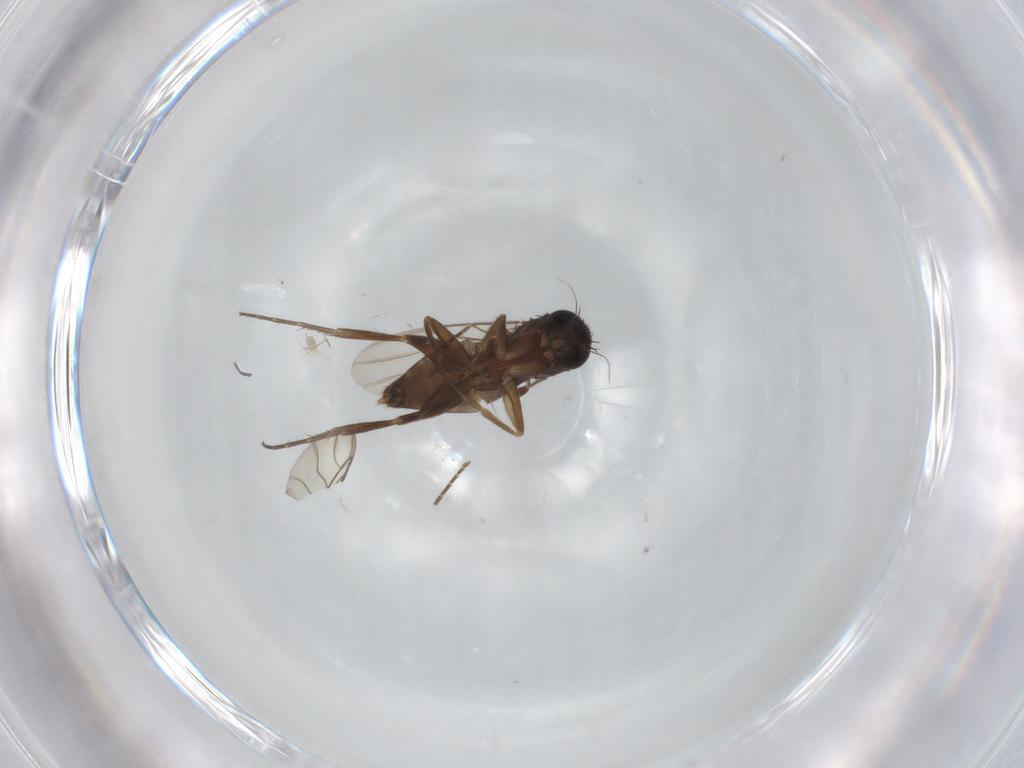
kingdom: Animalia
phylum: Arthropoda
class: Insecta
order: Diptera
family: Phoridae
